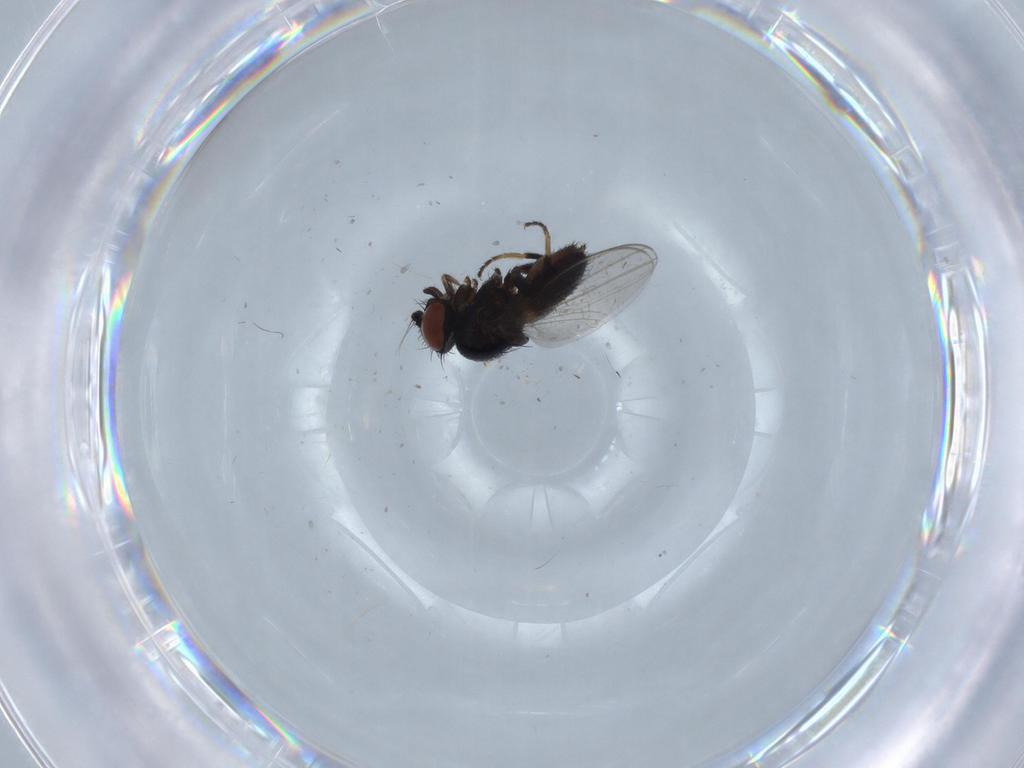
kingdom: Animalia
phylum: Arthropoda
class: Insecta
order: Diptera
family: Milichiidae
